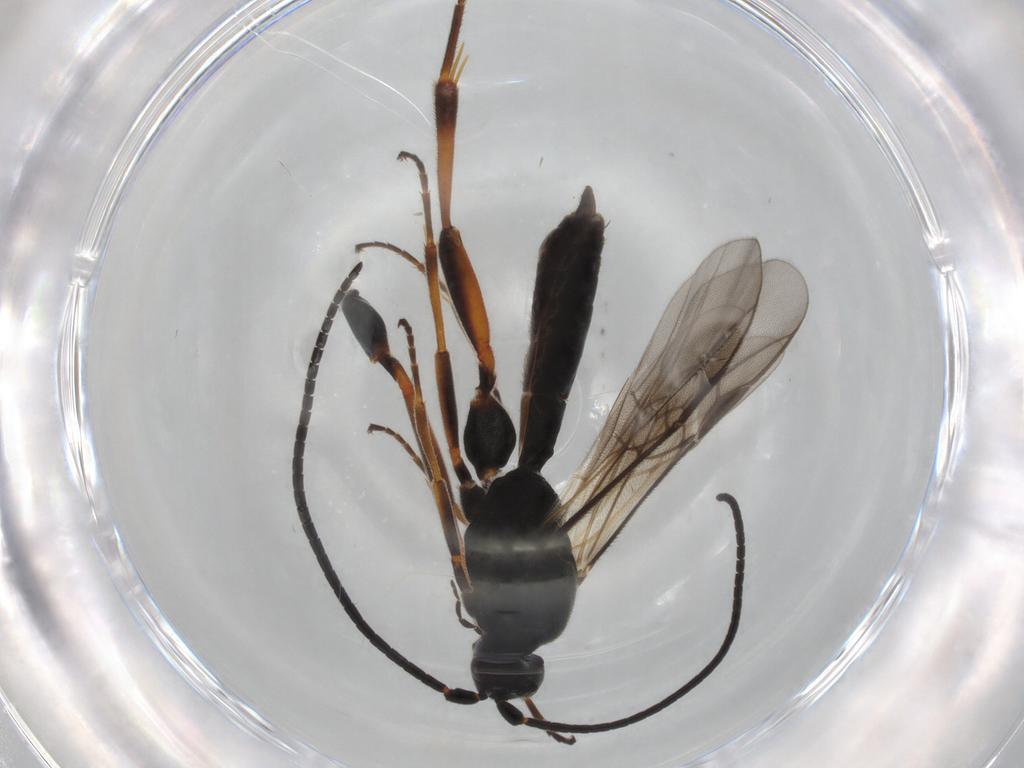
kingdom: Animalia
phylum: Arthropoda
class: Insecta
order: Hymenoptera
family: Braconidae
